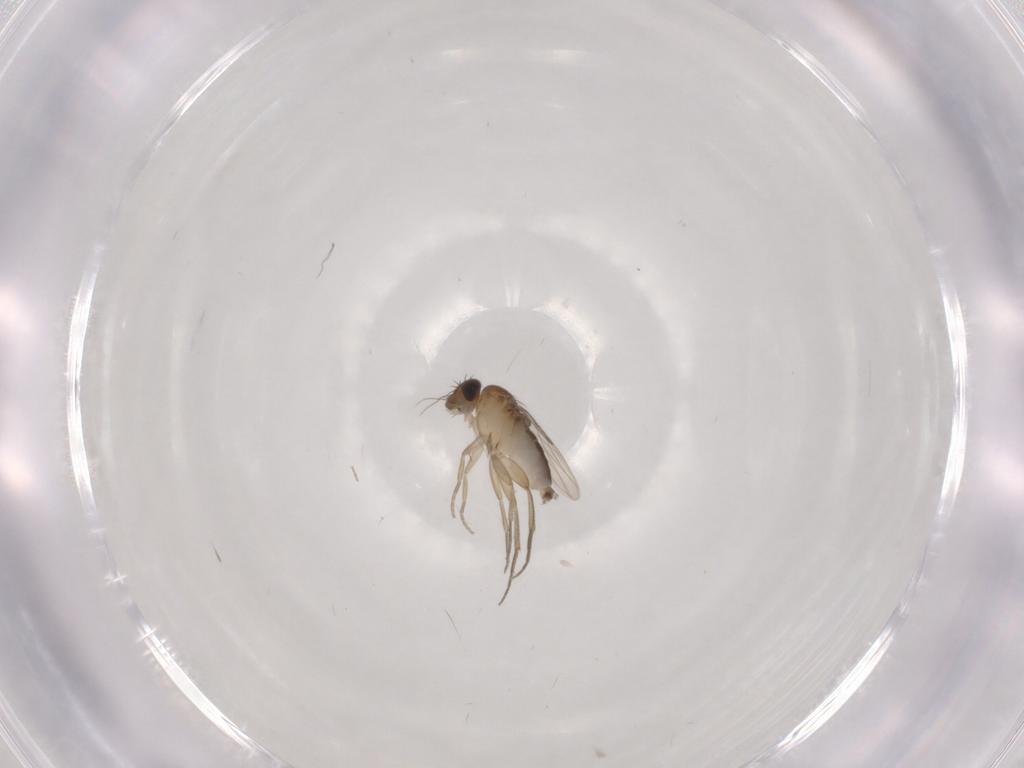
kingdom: Animalia
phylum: Arthropoda
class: Insecta
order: Diptera
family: Phoridae
